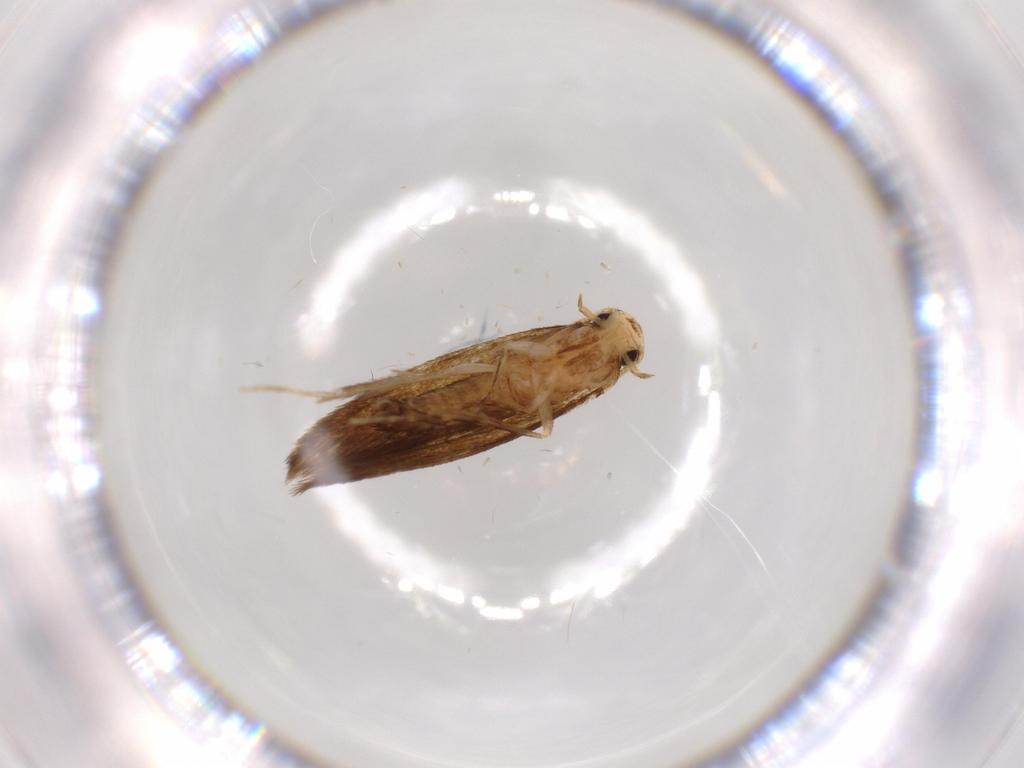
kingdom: Animalia
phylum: Arthropoda
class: Insecta
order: Lepidoptera
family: Tineidae
